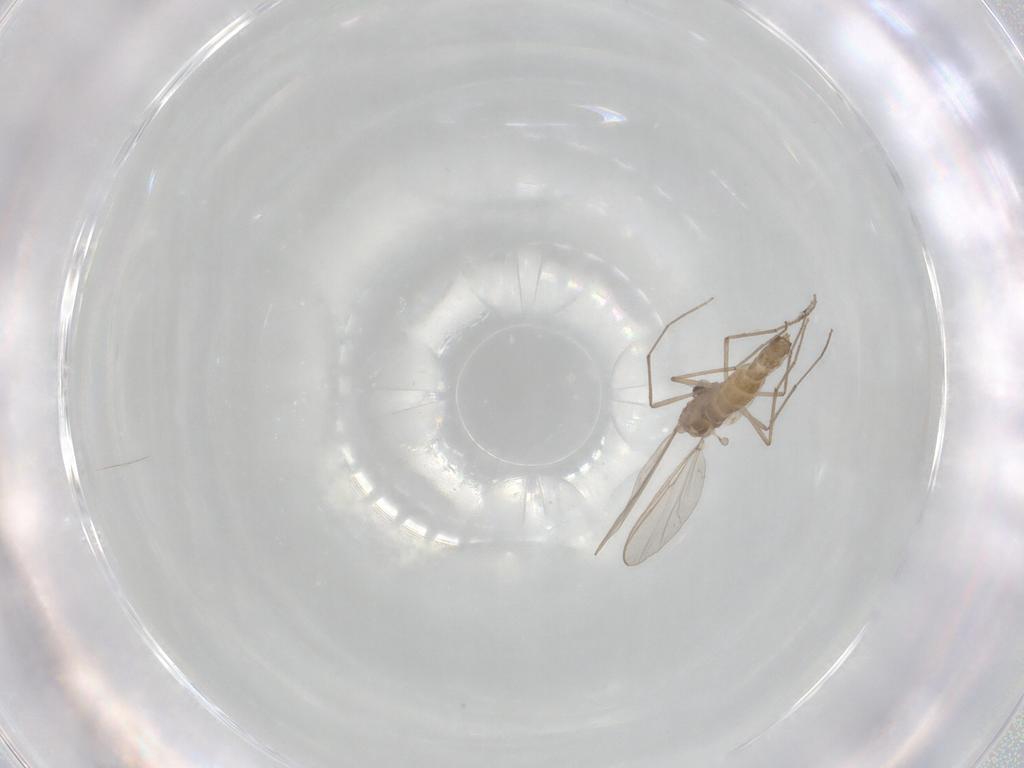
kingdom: Animalia
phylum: Arthropoda
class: Insecta
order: Diptera
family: Chironomidae
